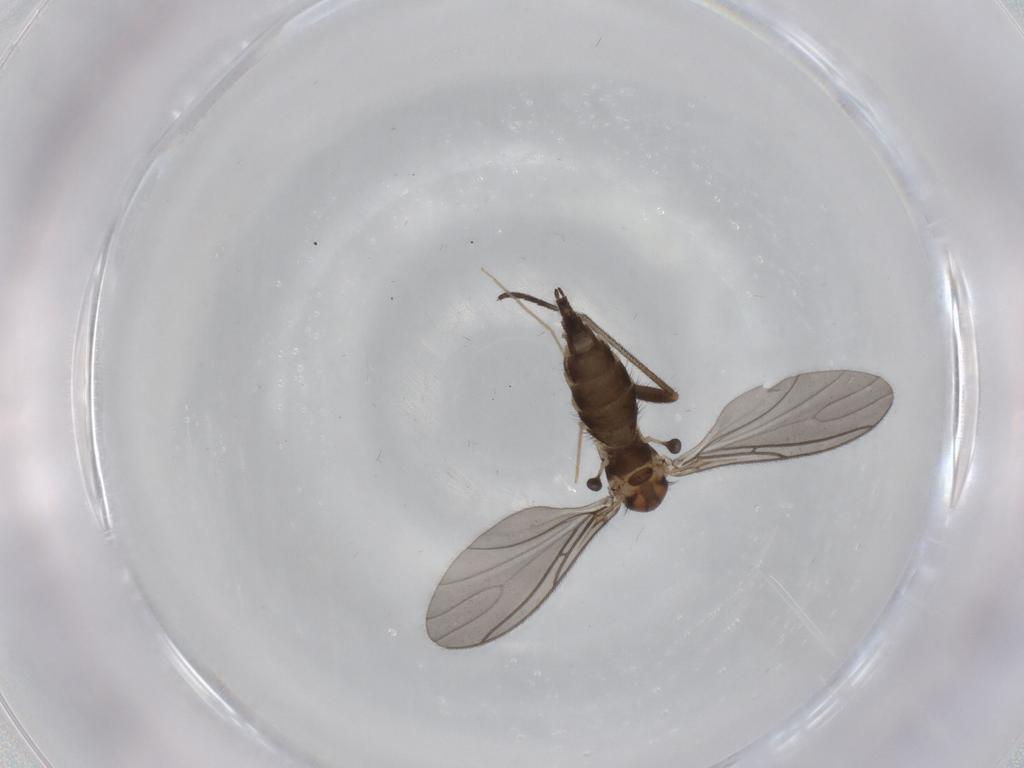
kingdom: Animalia
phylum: Arthropoda
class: Insecta
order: Diptera
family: Sciaridae
